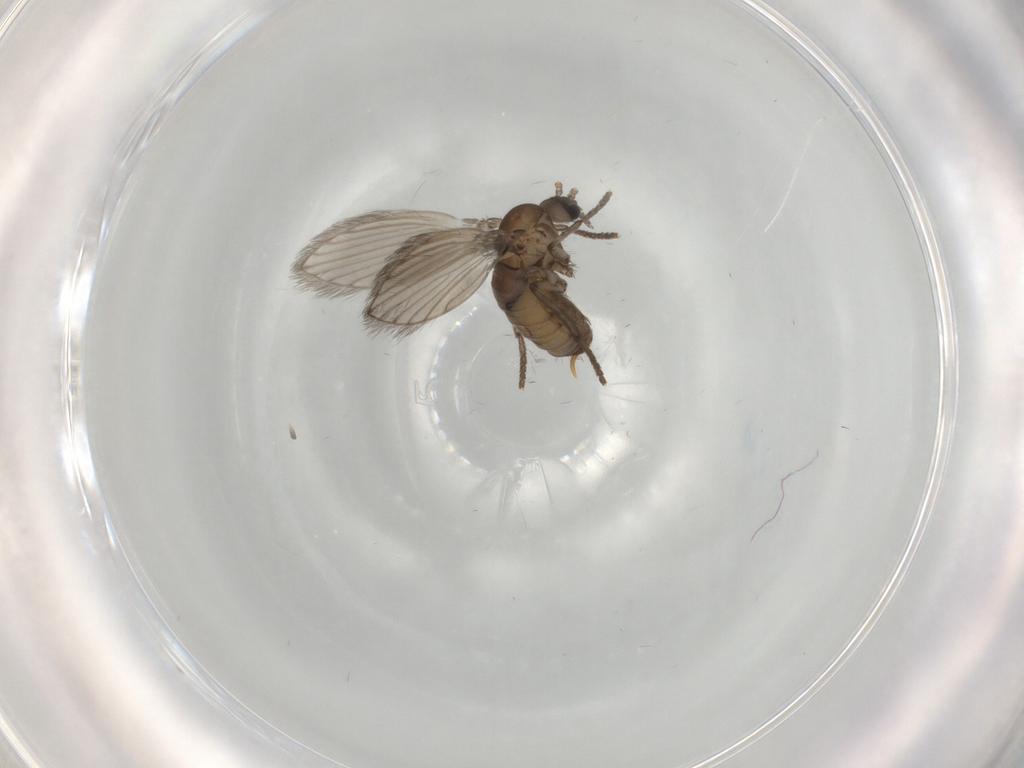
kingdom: Animalia
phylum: Arthropoda
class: Insecta
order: Diptera
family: Psychodidae
